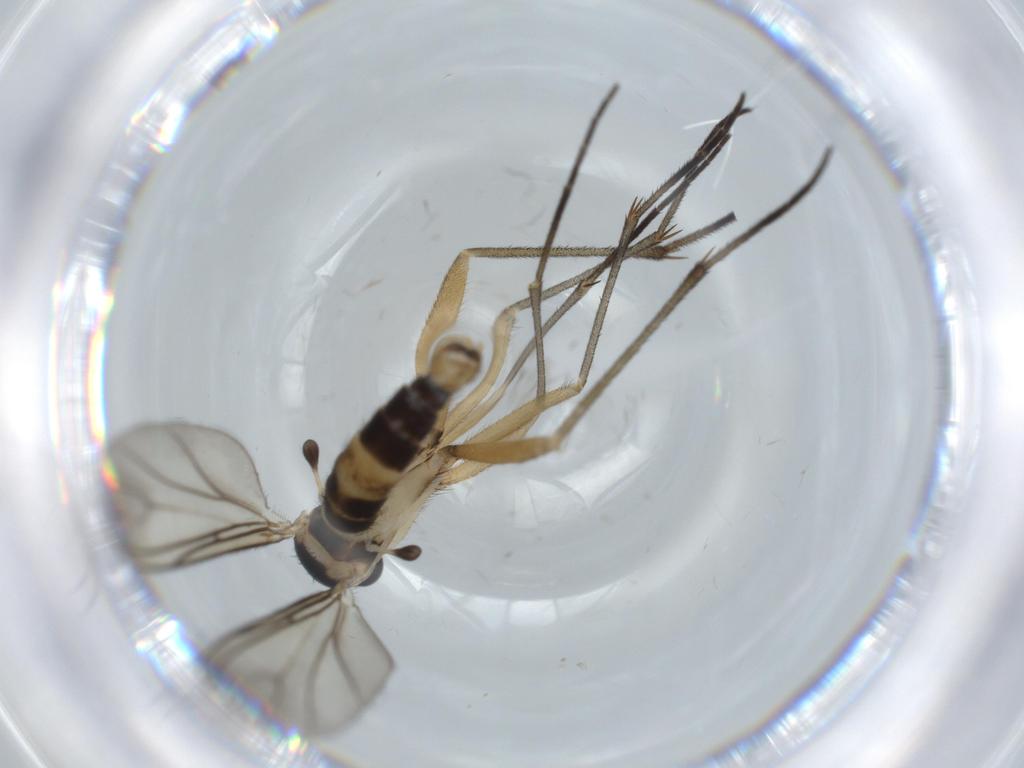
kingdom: Animalia
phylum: Arthropoda
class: Insecta
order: Diptera
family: Sciaridae
